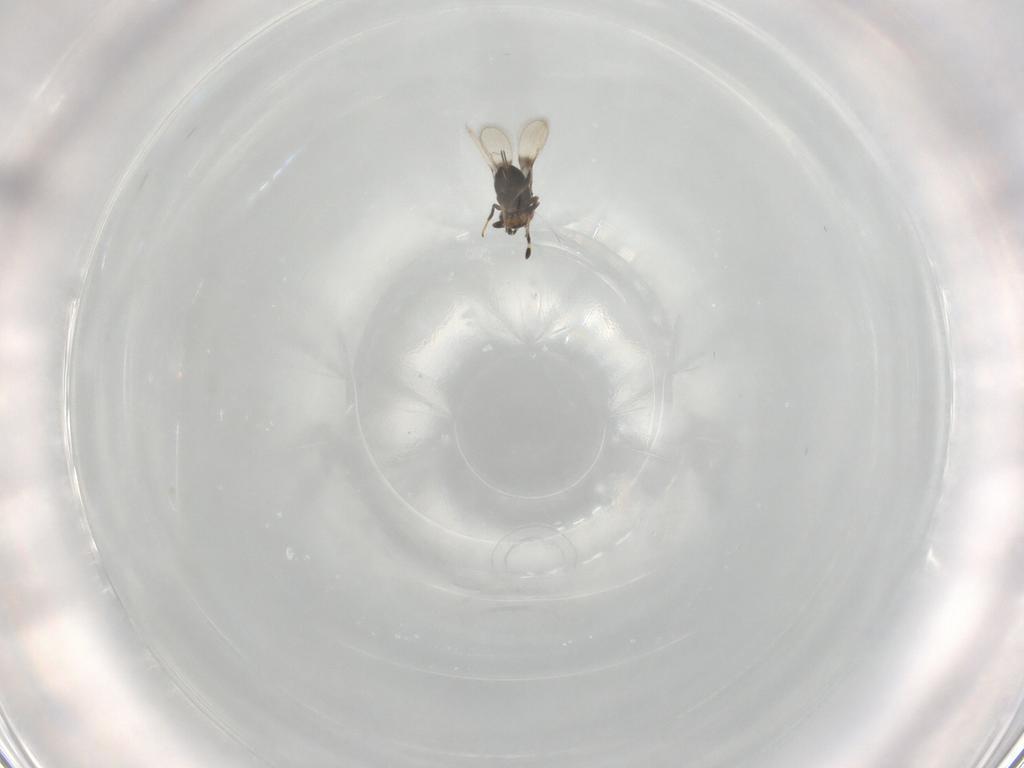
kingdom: Animalia
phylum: Arthropoda
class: Insecta
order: Hymenoptera
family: Azotidae
